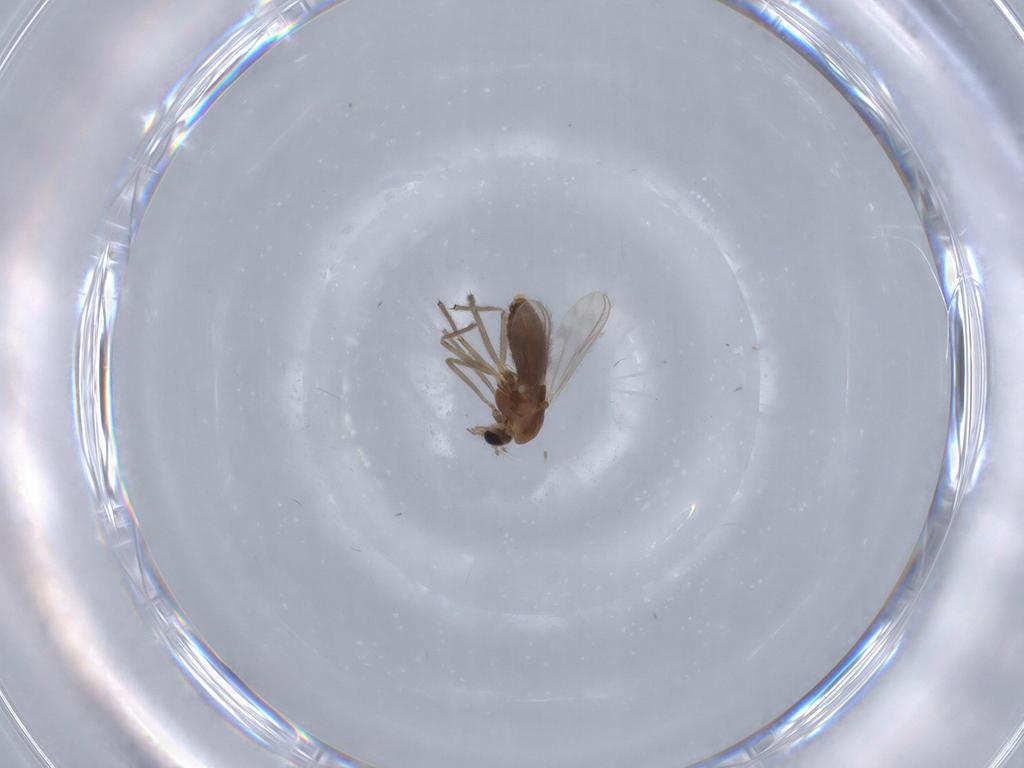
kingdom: Animalia
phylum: Arthropoda
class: Insecta
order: Diptera
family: Chironomidae
